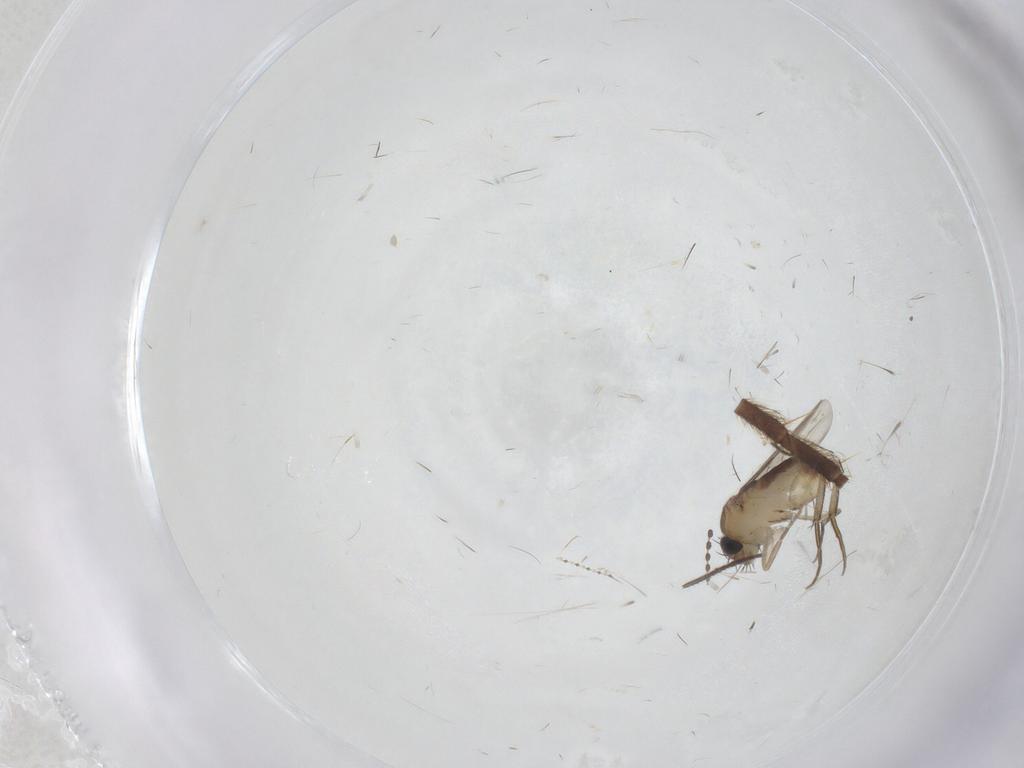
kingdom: Animalia
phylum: Arthropoda
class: Insecta
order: Diptera
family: Phoridae
